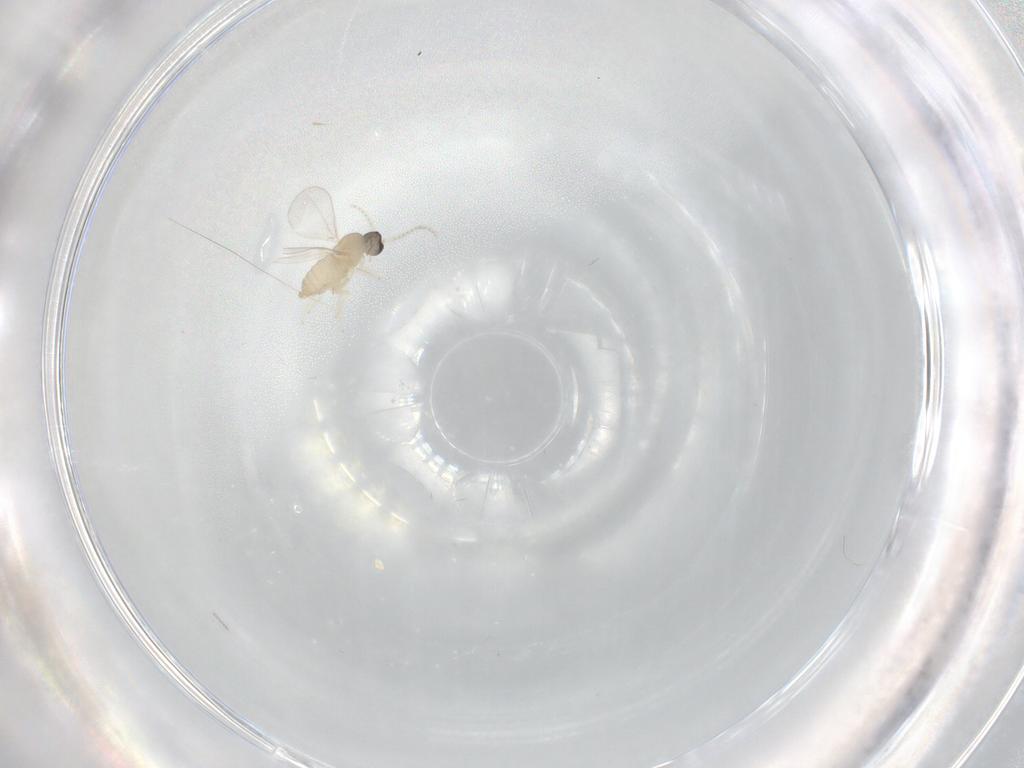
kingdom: Animalia
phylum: Arthropoda
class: Insecta
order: Diptera
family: Cecidomyiidae
